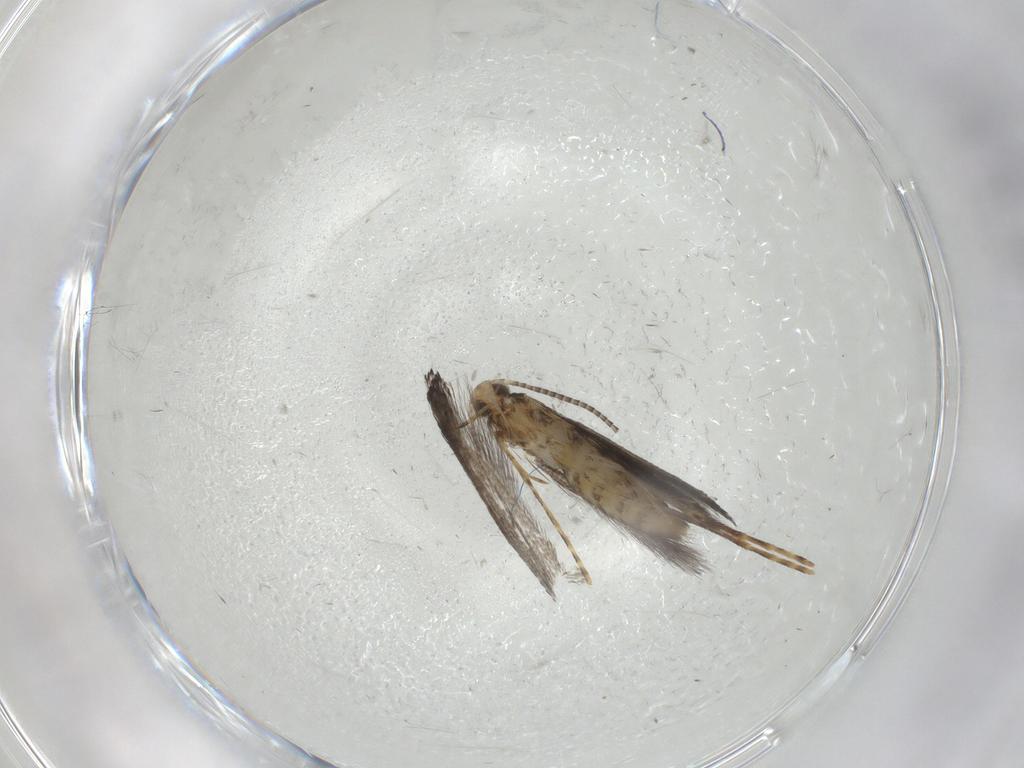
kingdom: Animalia
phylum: Arthropoda
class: Insecta
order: Lepidoptera
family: Oecophoridae
